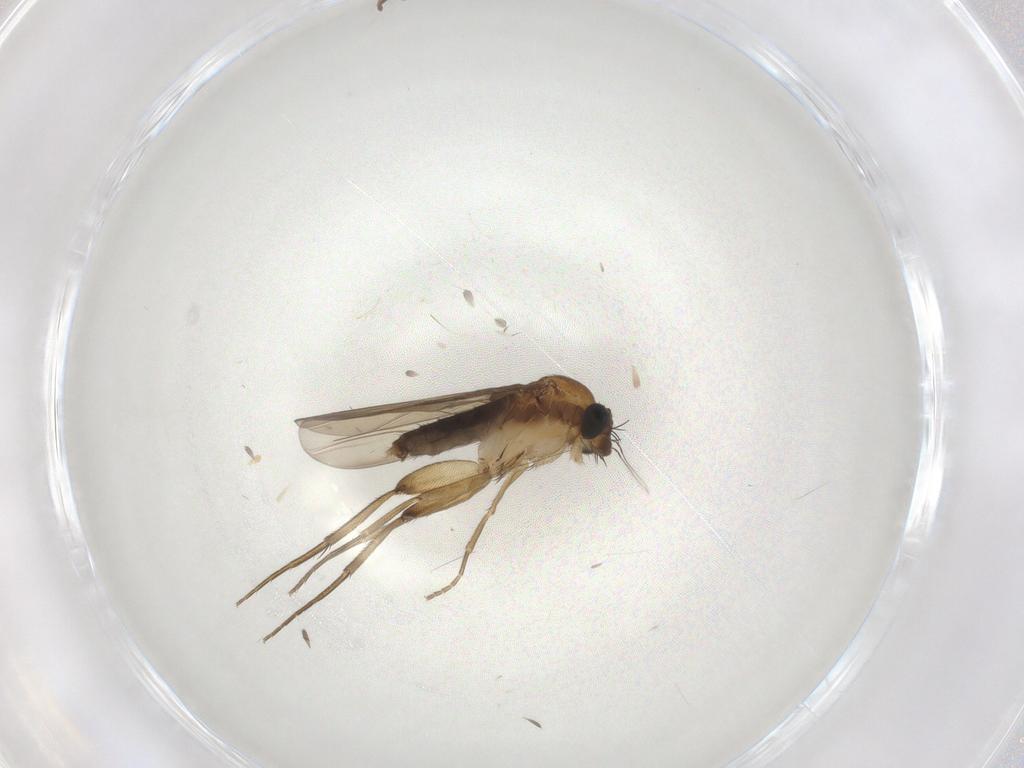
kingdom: Animalia
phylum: Arthropoda
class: Insecta
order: Diptera
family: Phoridae
